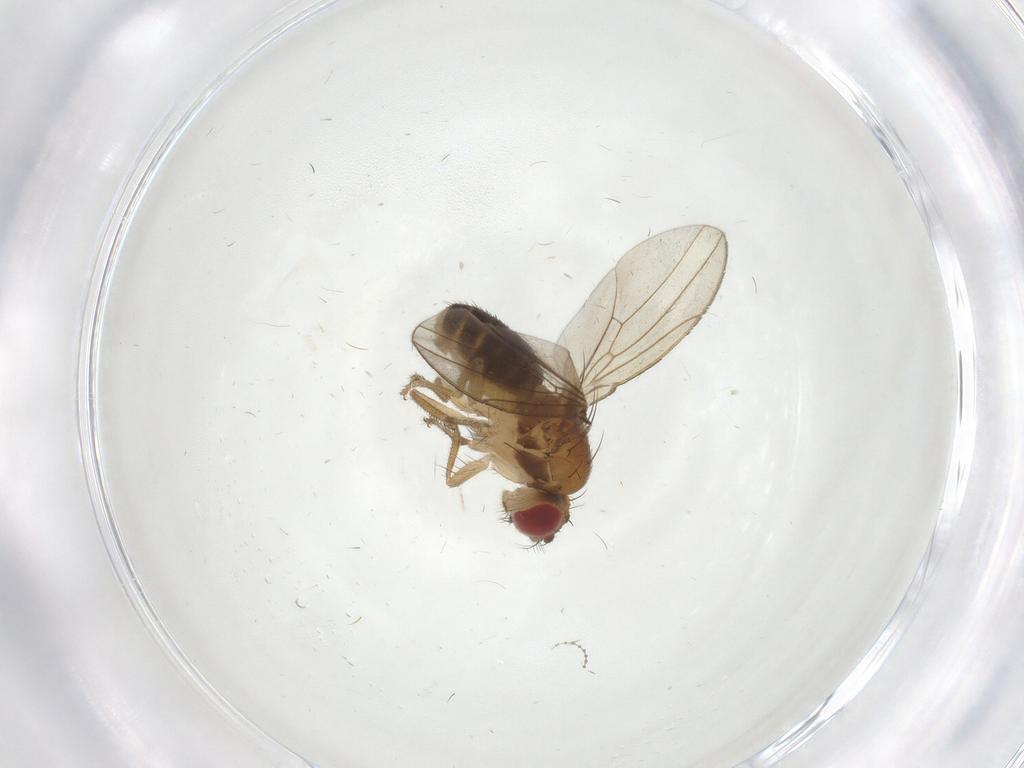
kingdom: Animalia
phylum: Arthropoda
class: Insecta
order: Diptera
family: Drosophilidae
